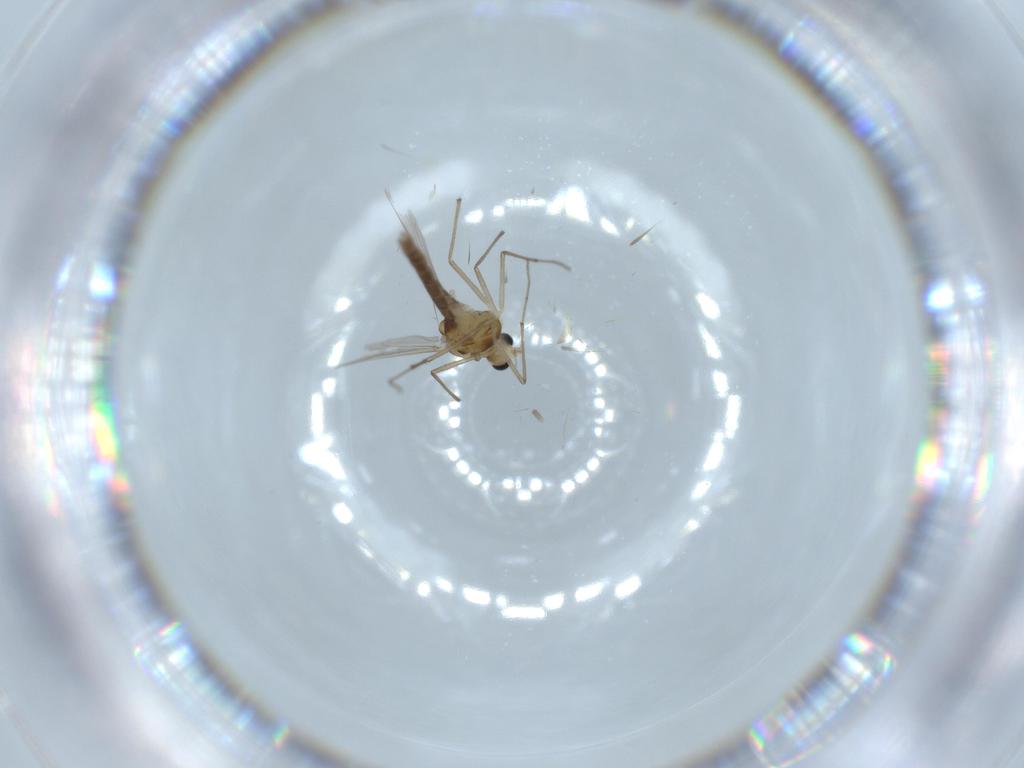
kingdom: Animalia
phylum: Arthropoda
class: Insecta
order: Diptera
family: Chironomidae
